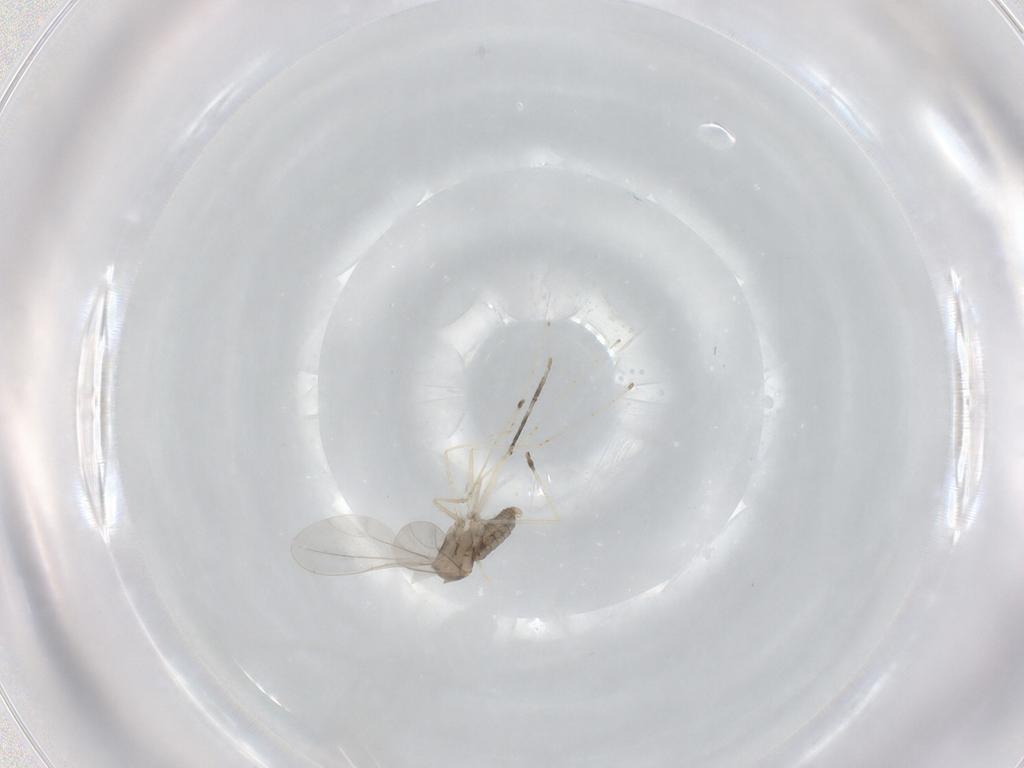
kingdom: Animalia
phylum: Arthropoda
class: Insecta
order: Diptera
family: Cecidomyiidae
